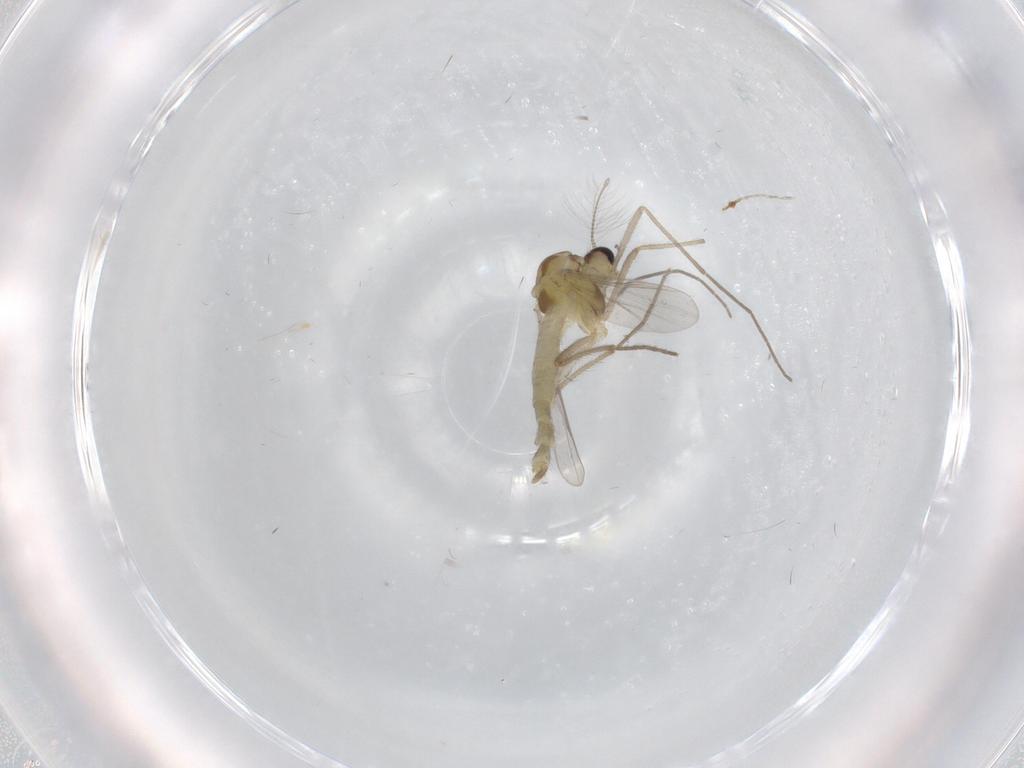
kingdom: Animalia
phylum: Arthropoda
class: Insecta
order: Diptera
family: Chironomidae
